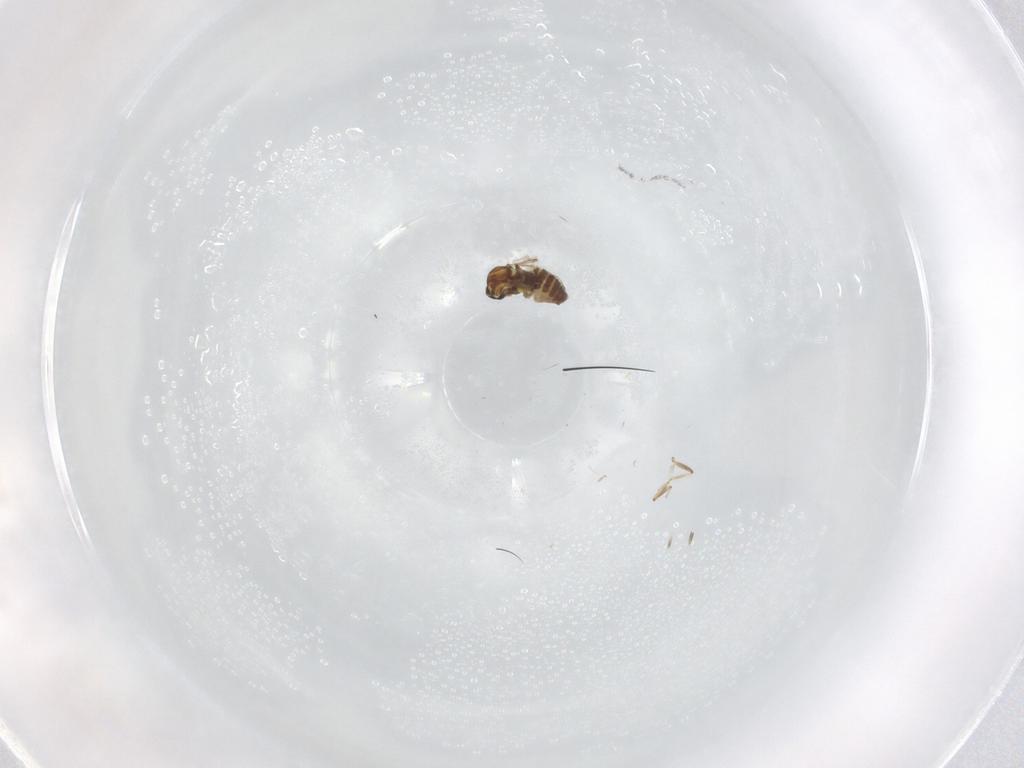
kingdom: Animalia
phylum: Arthropoda
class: Insecta
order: Diptera
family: Ceratopogonidae
